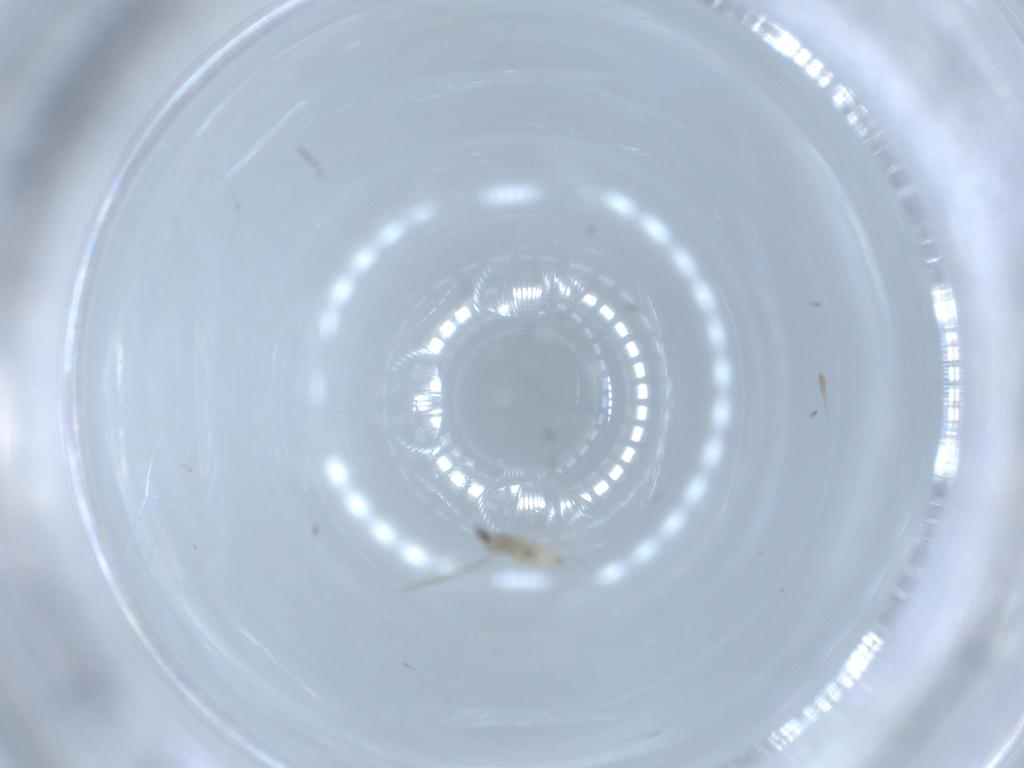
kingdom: Animalia
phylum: Arthropoda
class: Insecta
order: Diptera
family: Cecidomyiidae
